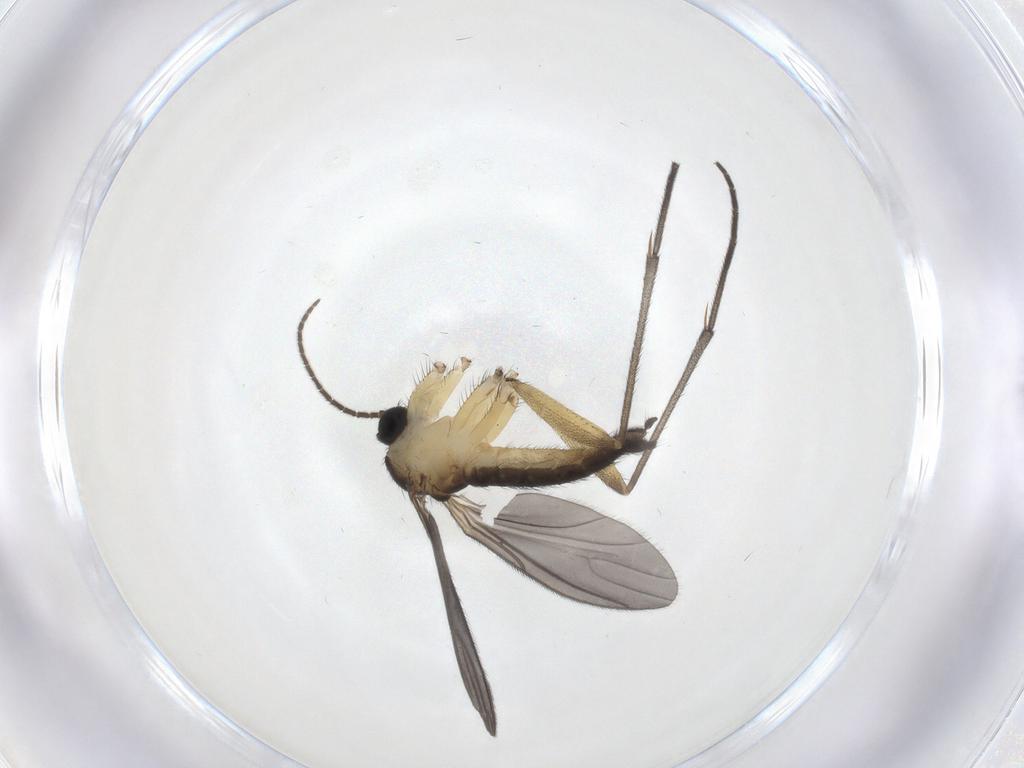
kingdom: Animalia
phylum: Arthropoda
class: Insecta
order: Diptera
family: Sciaridae
